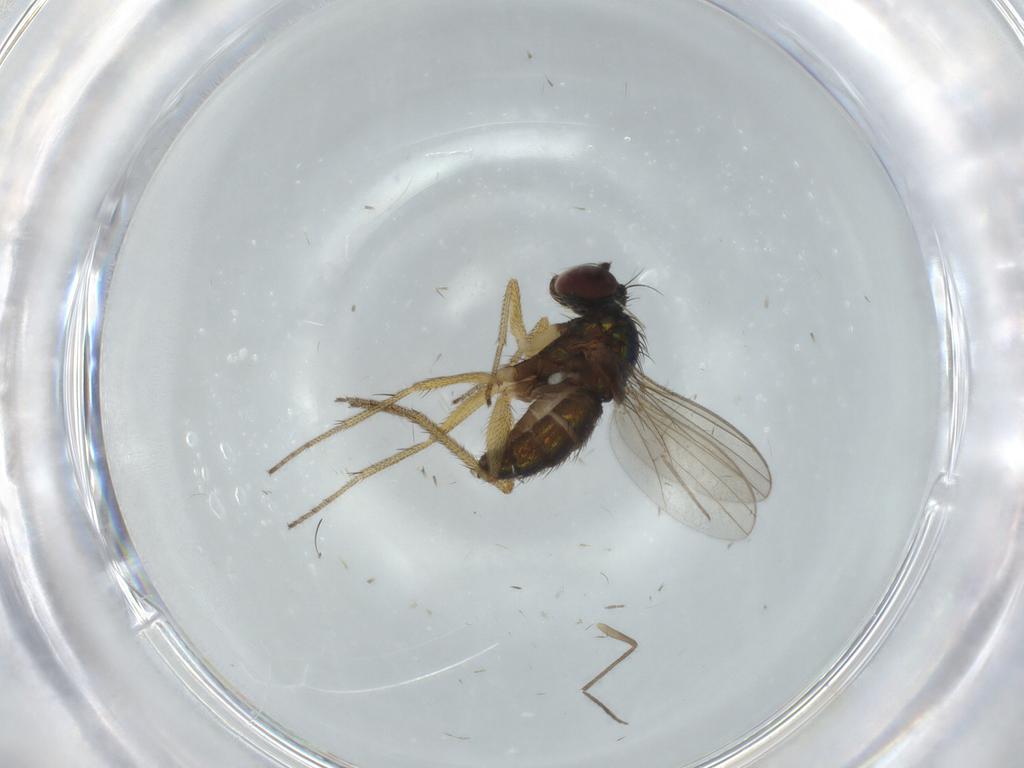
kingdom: Animalia
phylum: Arthropoda
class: Insecta
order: Diptera
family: Dolichopodidae
